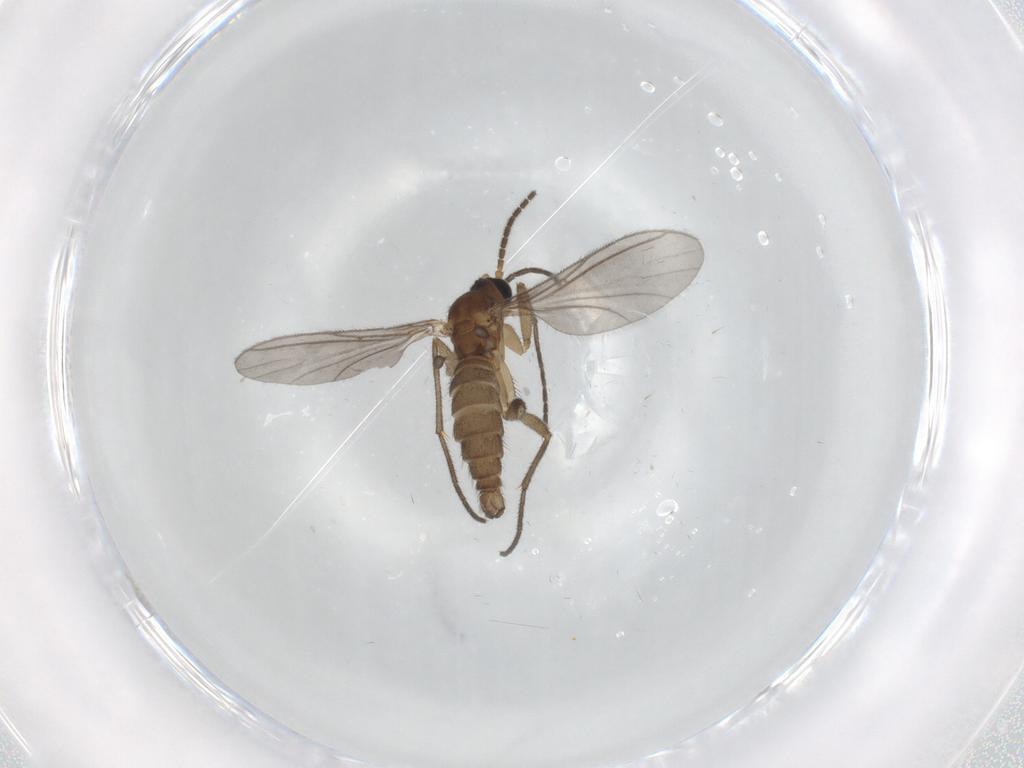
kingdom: Animalia
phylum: Arthropoda
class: Insecta
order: Diptera
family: Sciaridae
